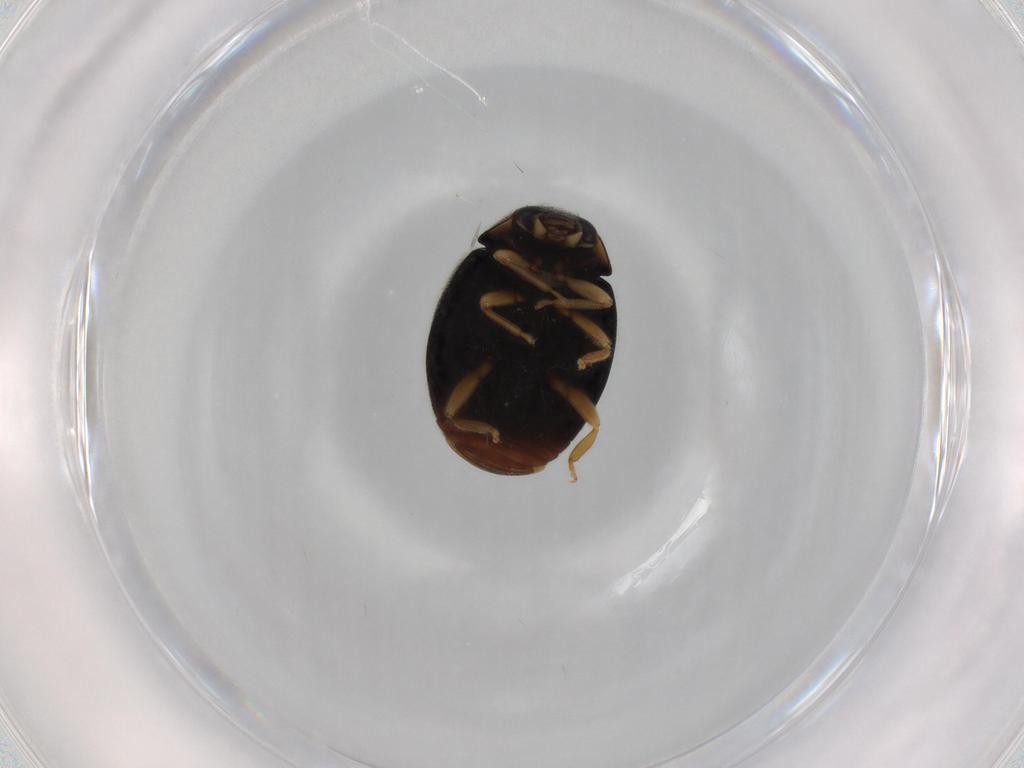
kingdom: Animalia
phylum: Arthropoda
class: Insecta
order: Coleoptera
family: Coccinellidae
